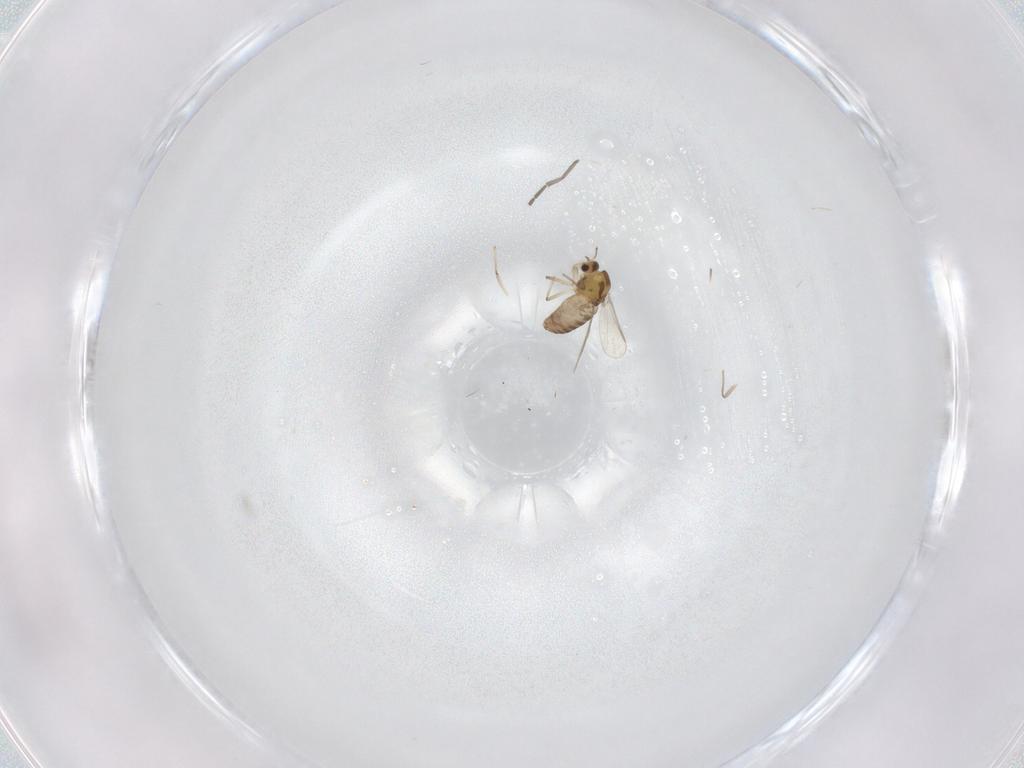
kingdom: Animalia
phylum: Arthropoda
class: Insecta
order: Diptera
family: Chironomidae
